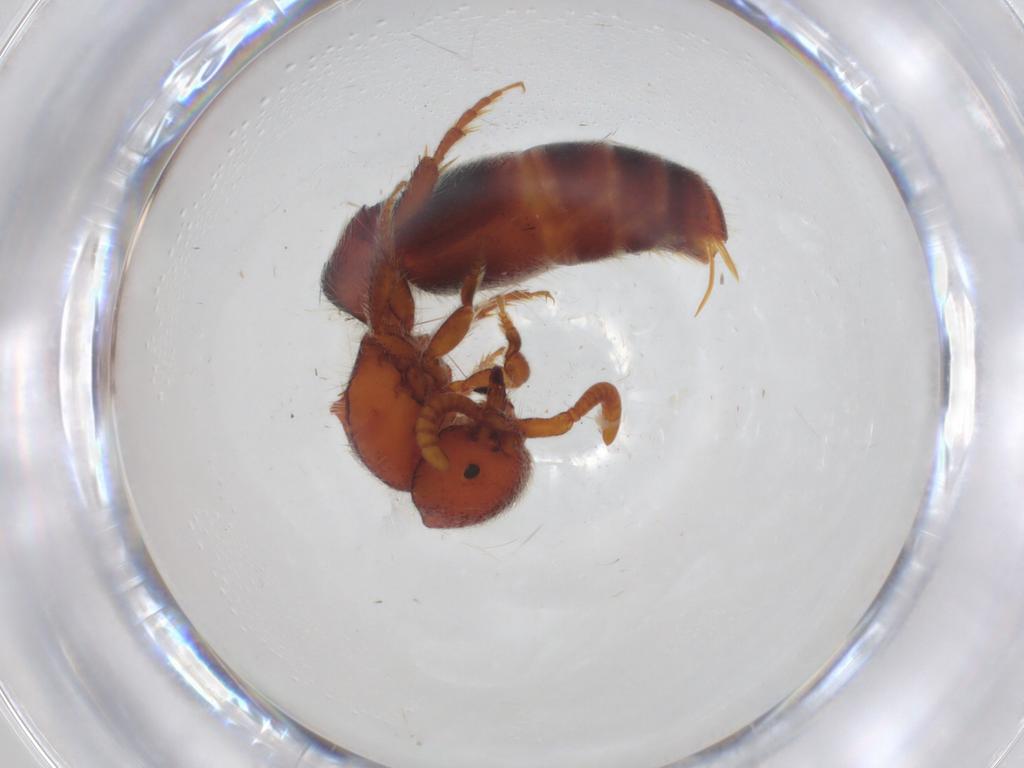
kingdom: Animalia
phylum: Arthropoda
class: Insecta
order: Hymenoptera
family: Mutillidae
